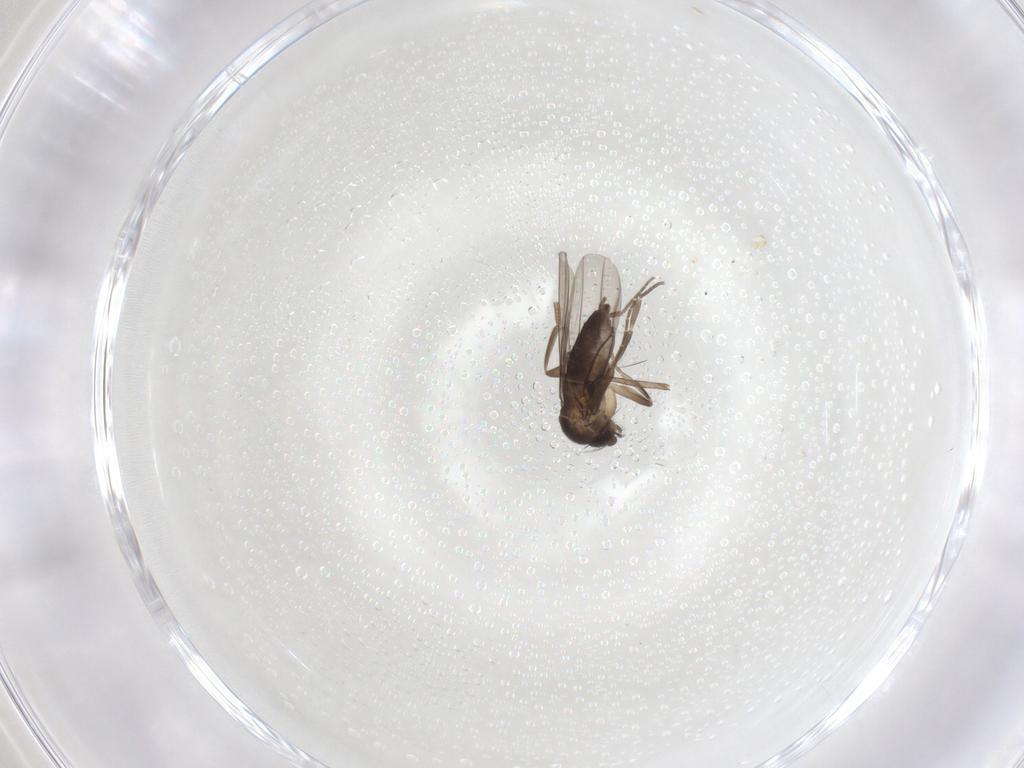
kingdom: Animalia
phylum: Arthropoda
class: Insecta
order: Diptera
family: Phoridae
